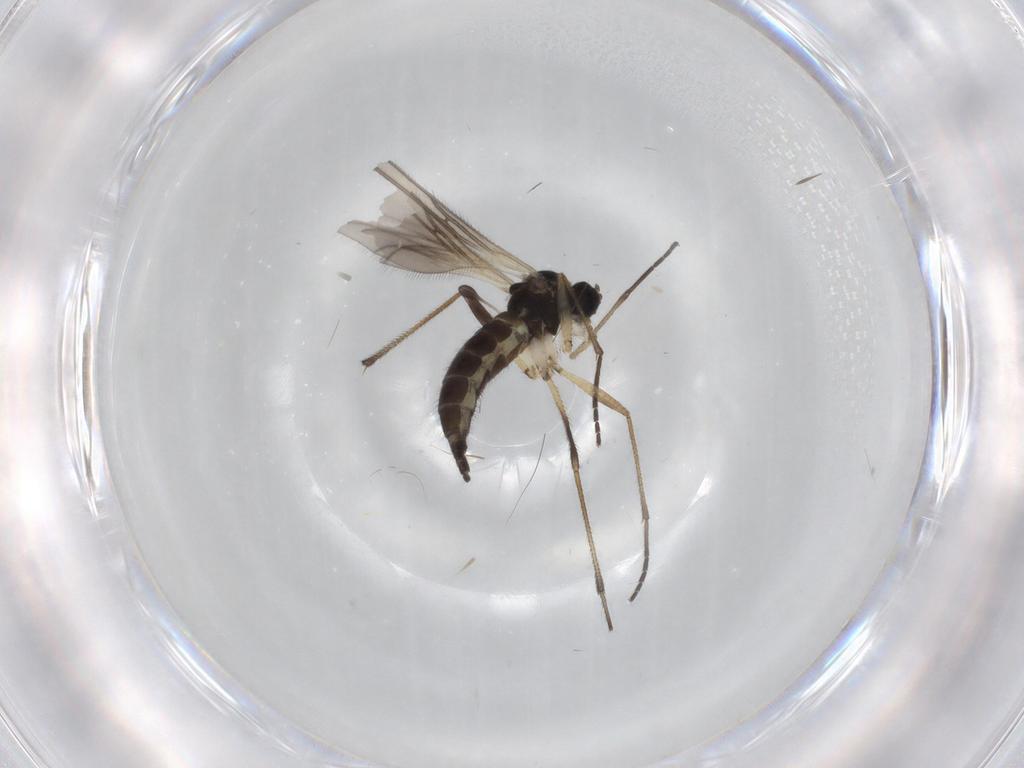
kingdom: Animalia
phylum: Arthropoda
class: Insecta
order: Diptera
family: Sciaridae
